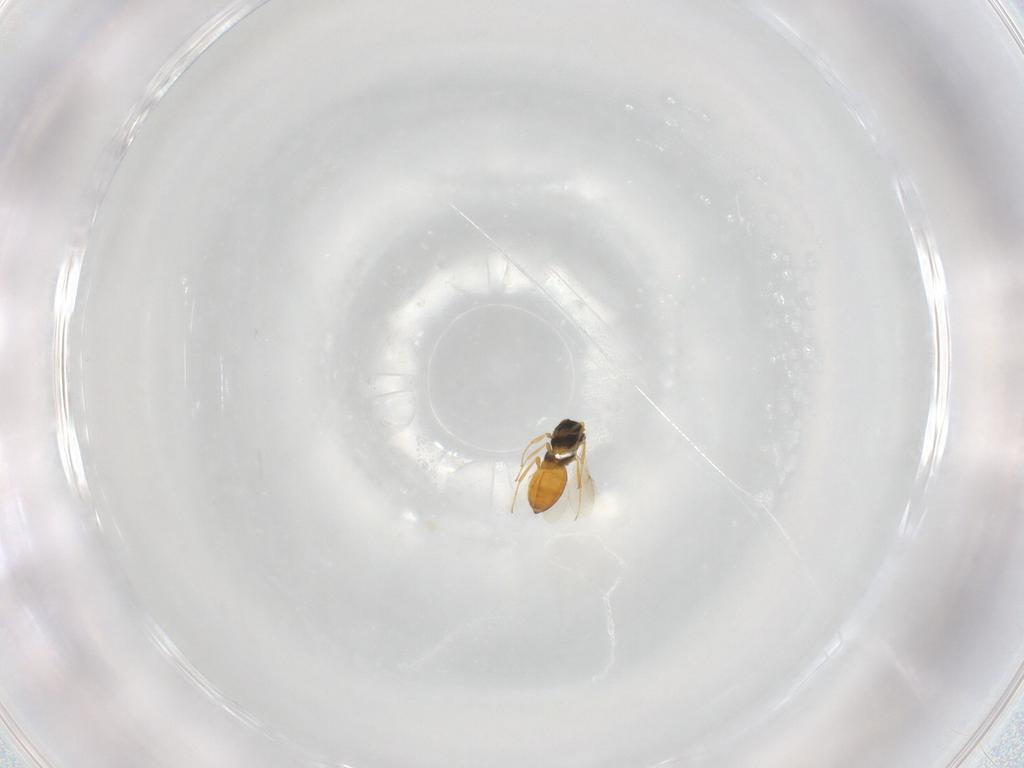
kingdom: Animalia
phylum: Arthropoda
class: Insecta
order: Hymenoptera
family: Scelionidae
